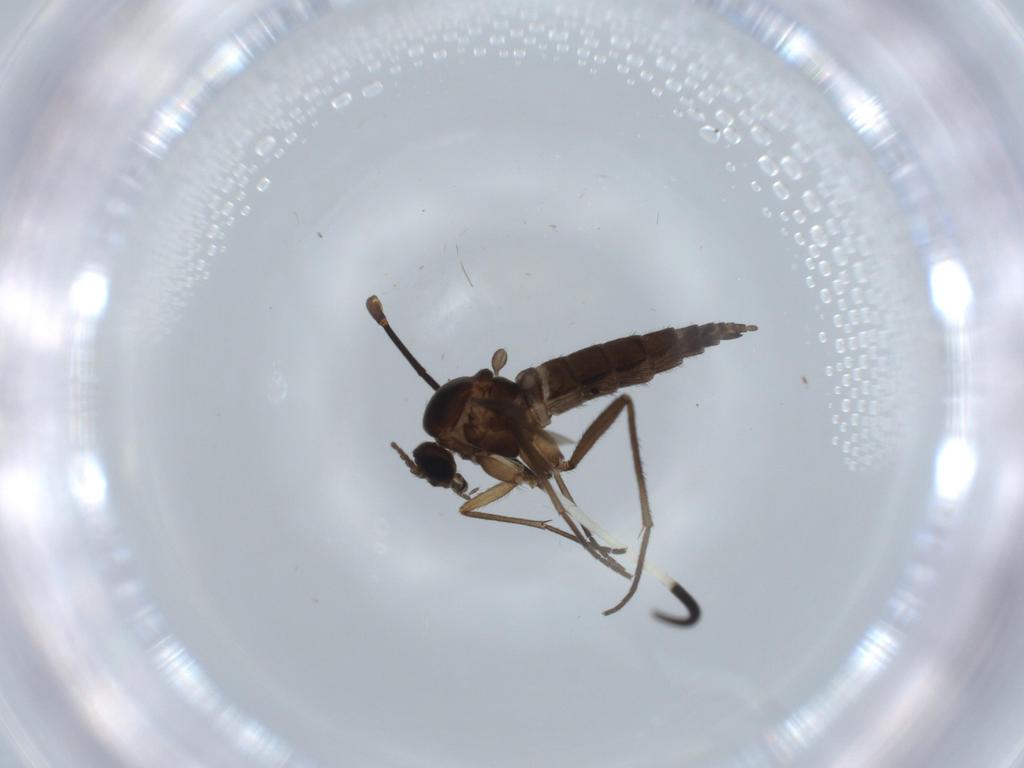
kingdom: Animalia
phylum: Arthropoda
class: Insecta
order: Diptera
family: Sciaridae
